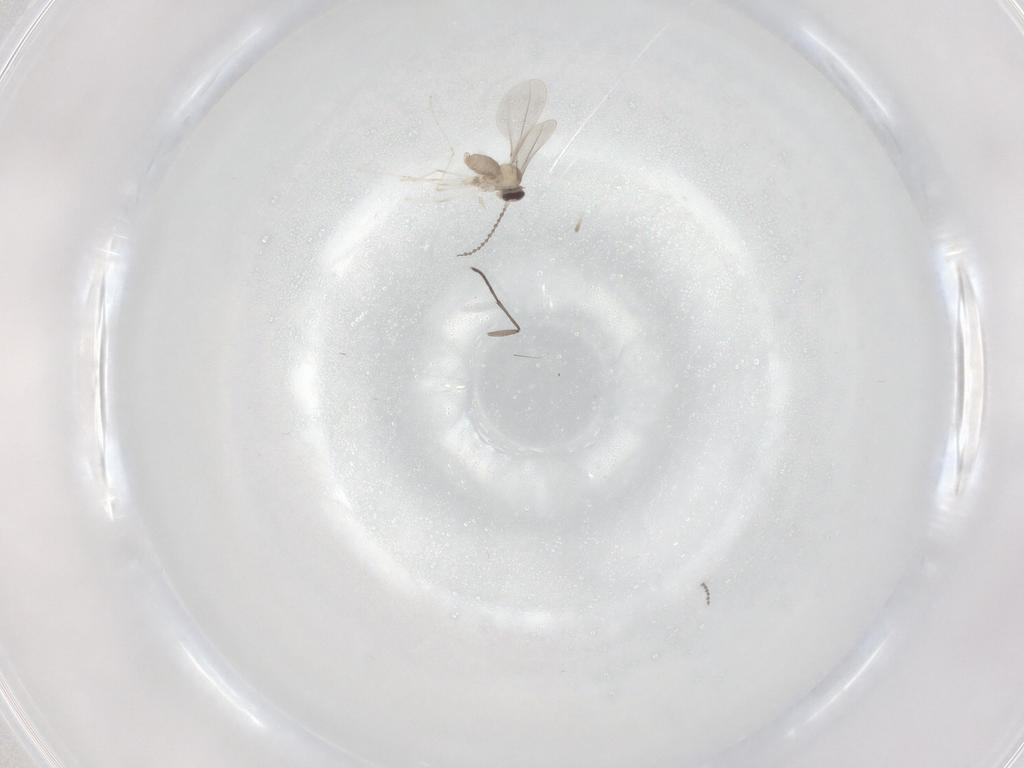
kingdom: Animalia
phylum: Arthropoda
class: Insecta
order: Diptera
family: Cecidomyiidae
